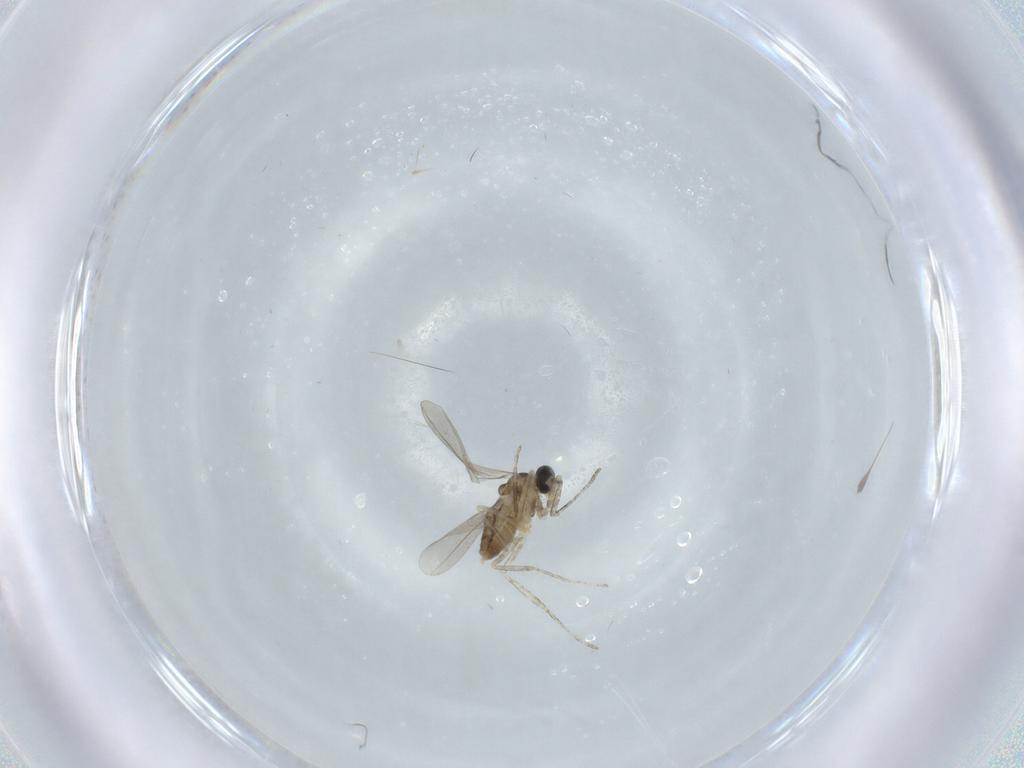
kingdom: Animalia
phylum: Arthropoda
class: Insecta
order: Diptera
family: Cecidomyiidae
